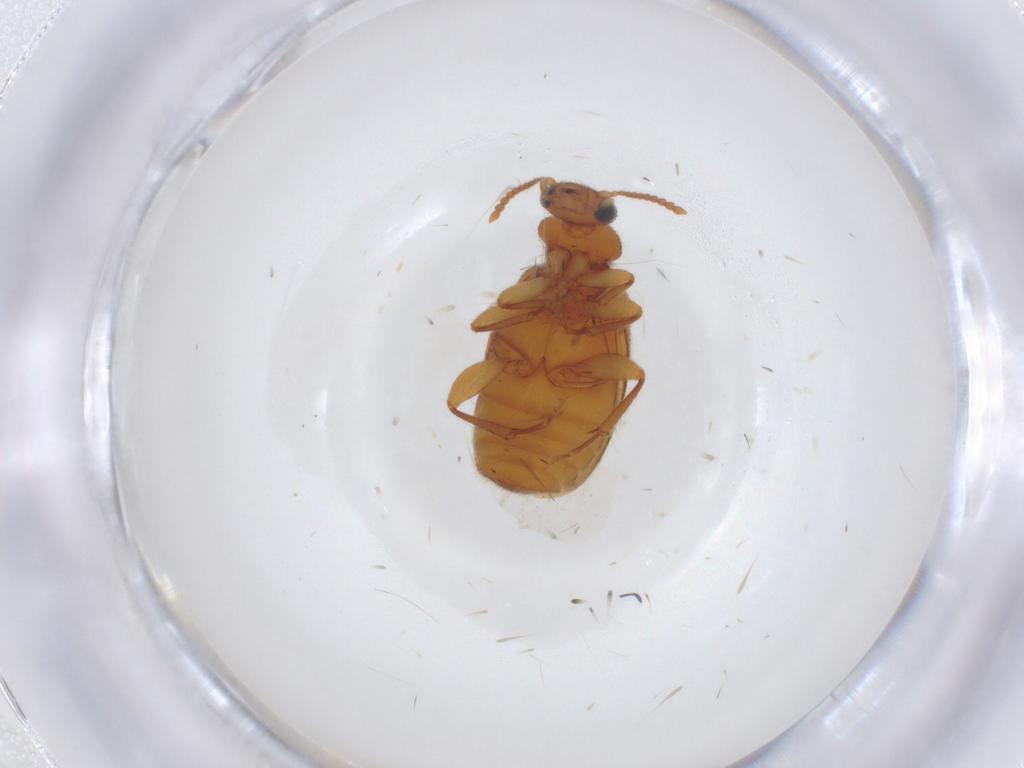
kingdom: Animalia
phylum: Arthropoda
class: Insecta
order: Coleoptera
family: Anthicidae
